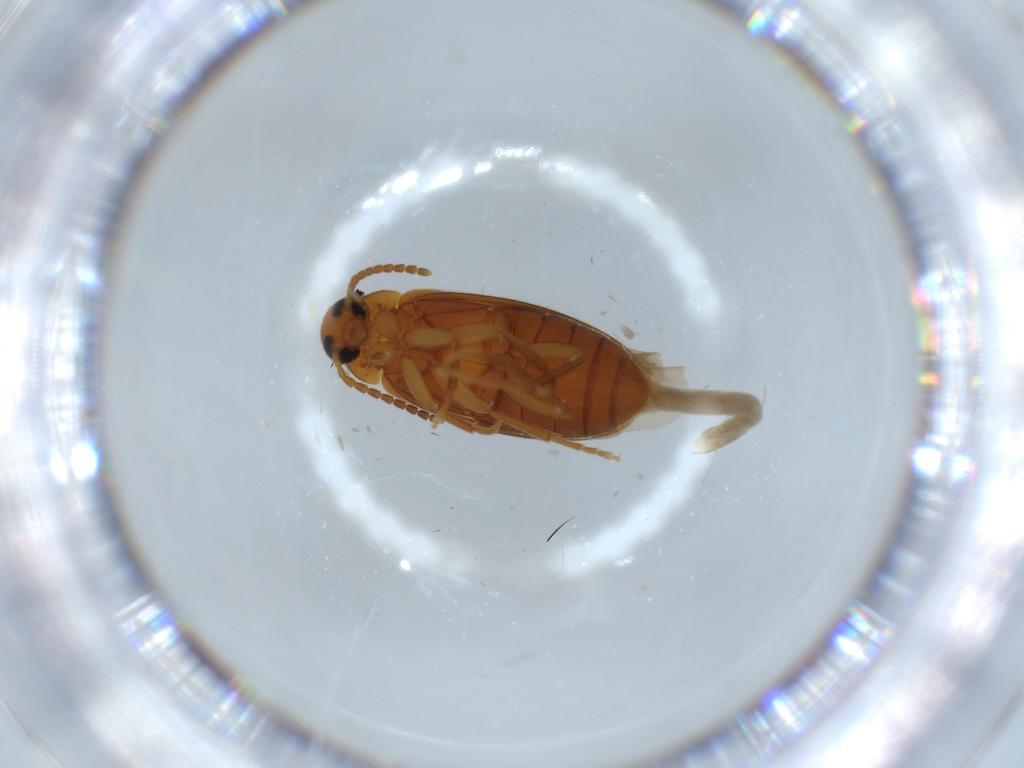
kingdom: Animalia
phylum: Arthropoda
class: Insecta
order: Coleoptera
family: Scraptiidae
